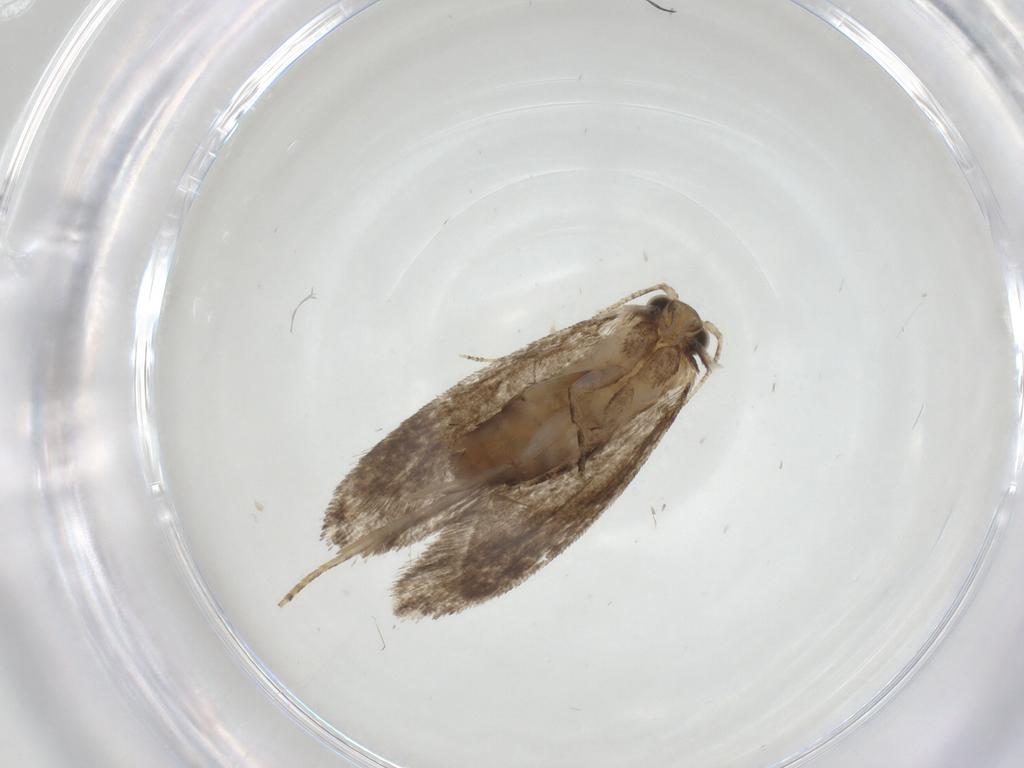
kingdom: Animalia
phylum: Arthropoda
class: Insecta
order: Lepidoptera
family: Tineidae
